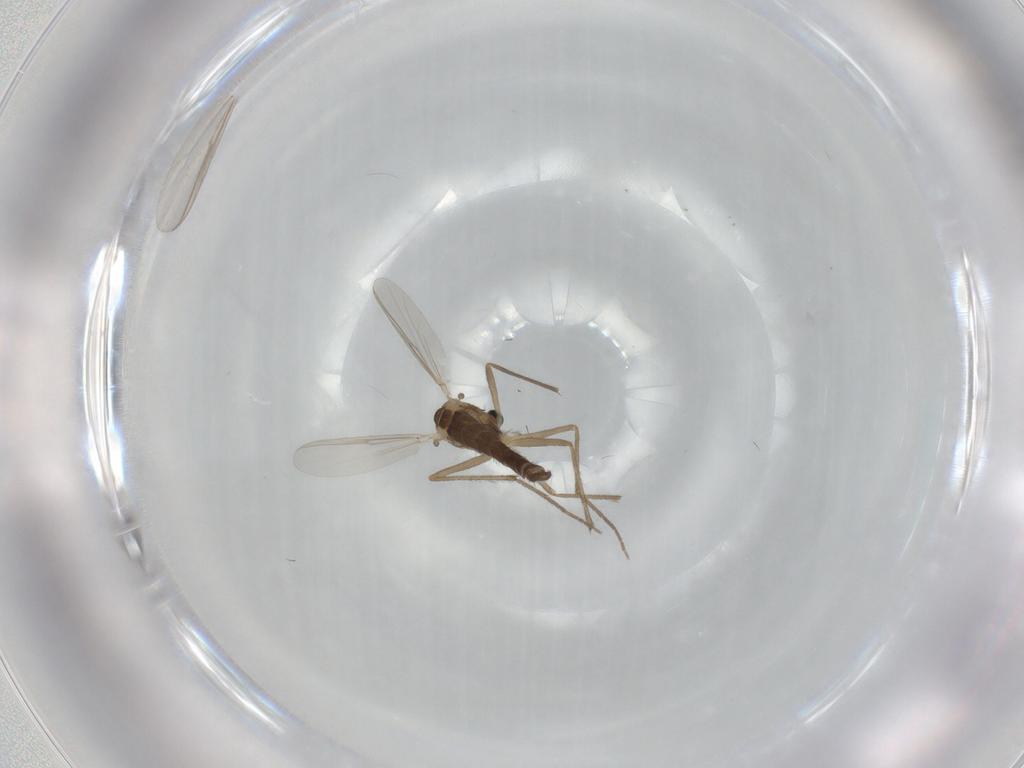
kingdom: Animalia
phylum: Arthropoda
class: Insecta
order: Diptera
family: Chironomidae
